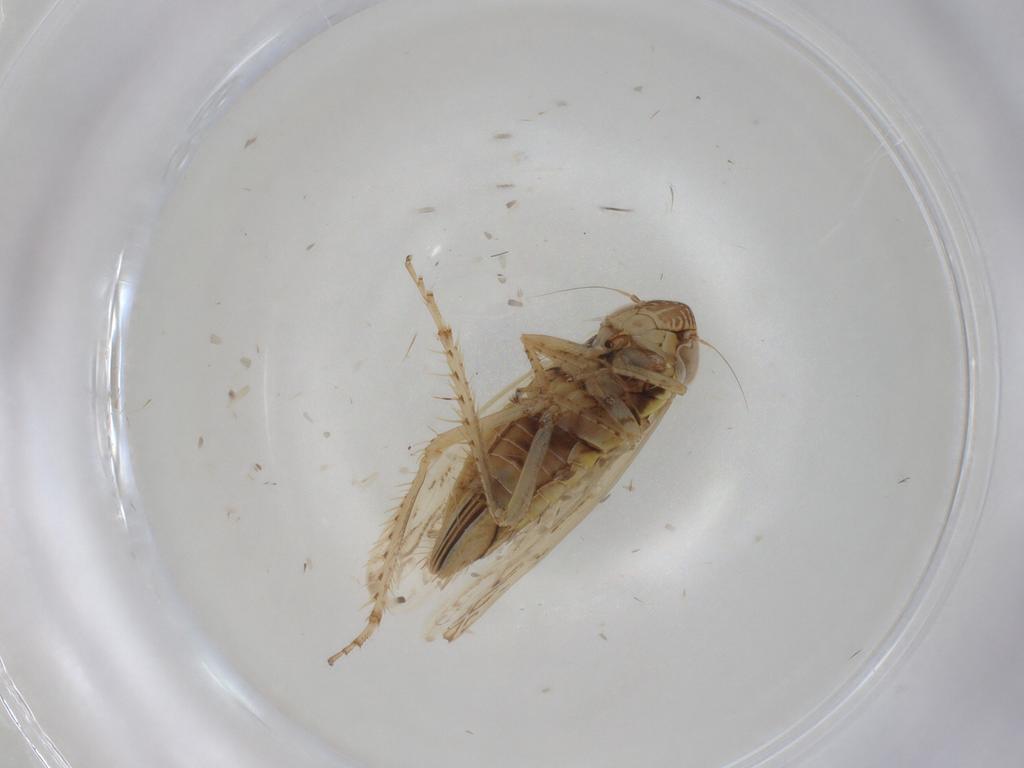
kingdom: Animalia
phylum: Arthropoda
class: Insecta
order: Hemiptera
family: Cicadellidae
